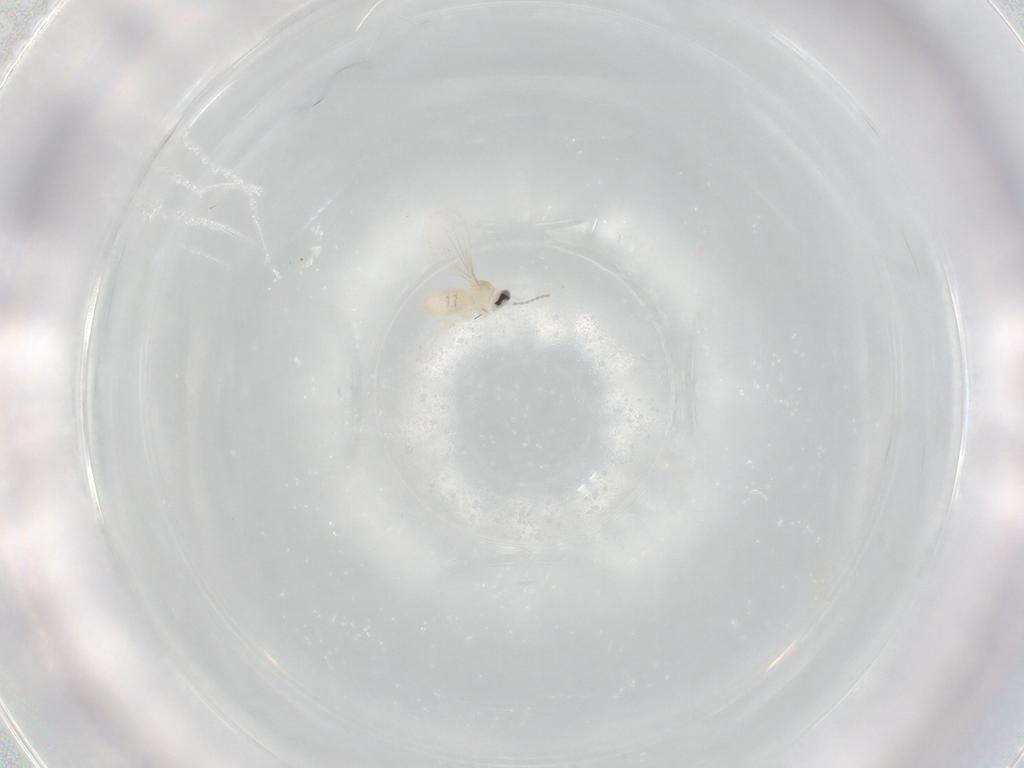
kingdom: Animalia
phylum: Arthropoda
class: Insecta
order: Diptera
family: Cecidomyiidae
